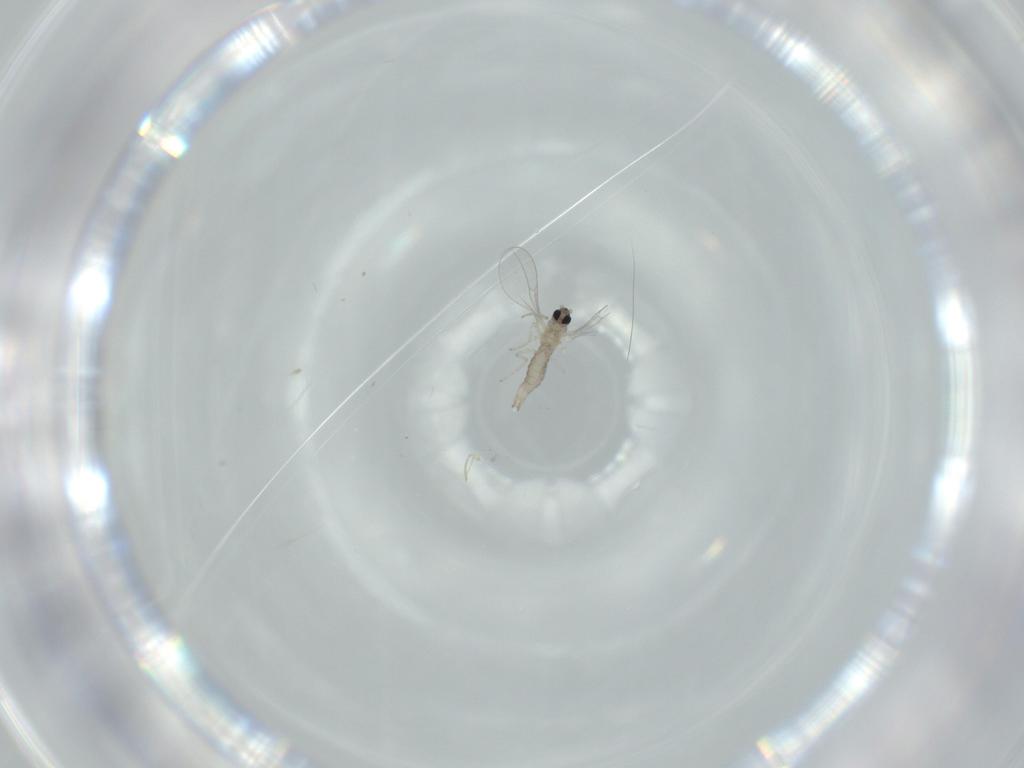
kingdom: Animalia
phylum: Arthropoda
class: Insecta
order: Diptera
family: Cecidomyiidae
